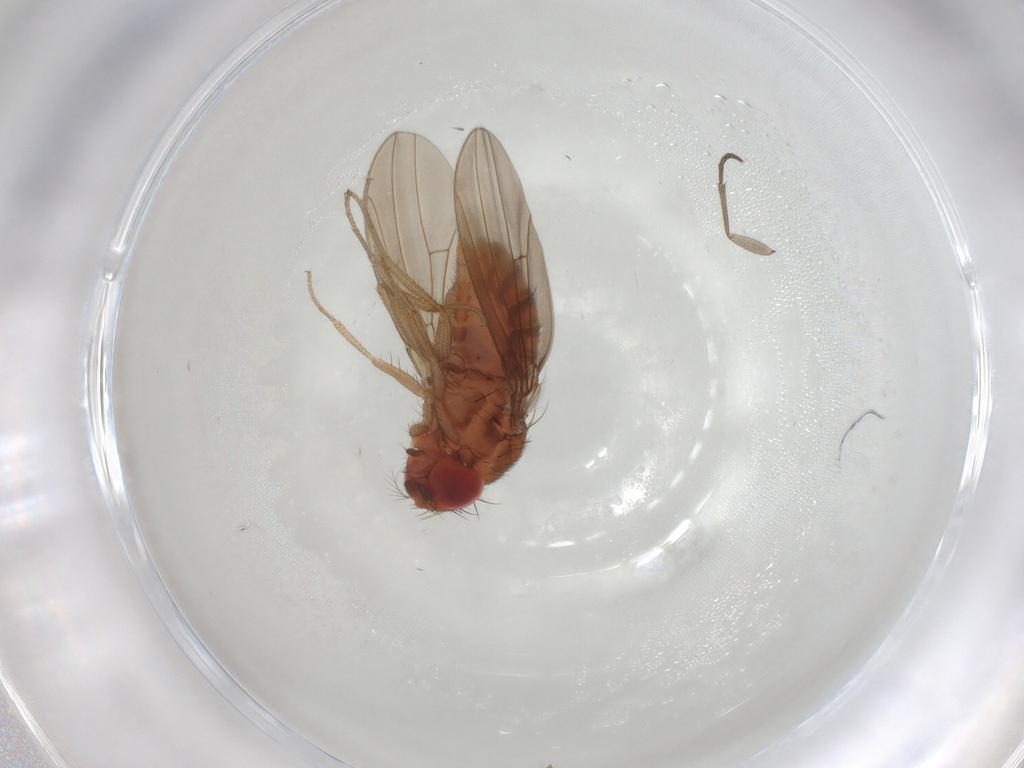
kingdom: Animalia
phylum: Arthropoda
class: Insecta
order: Diptera
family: Drosophilidae
